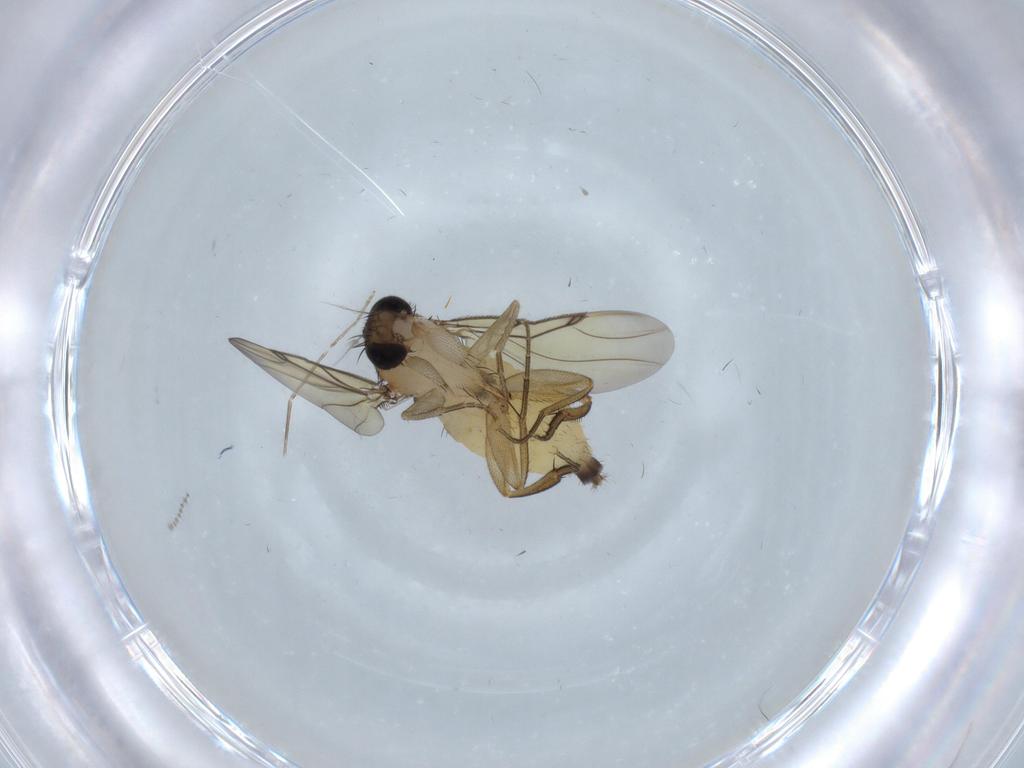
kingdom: Animalia
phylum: Arthropoda
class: Insecta
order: Diptera
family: Chironomidae
